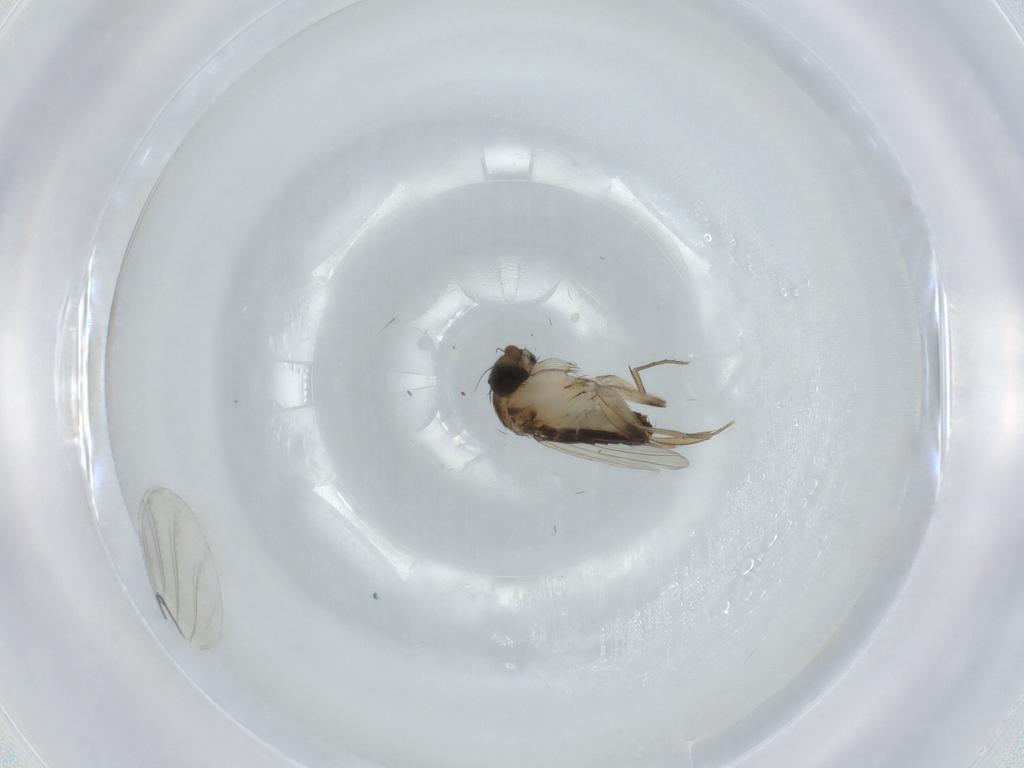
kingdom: Animalia
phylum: Arthropoda
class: Insecta
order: Diptera
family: Phoridae
